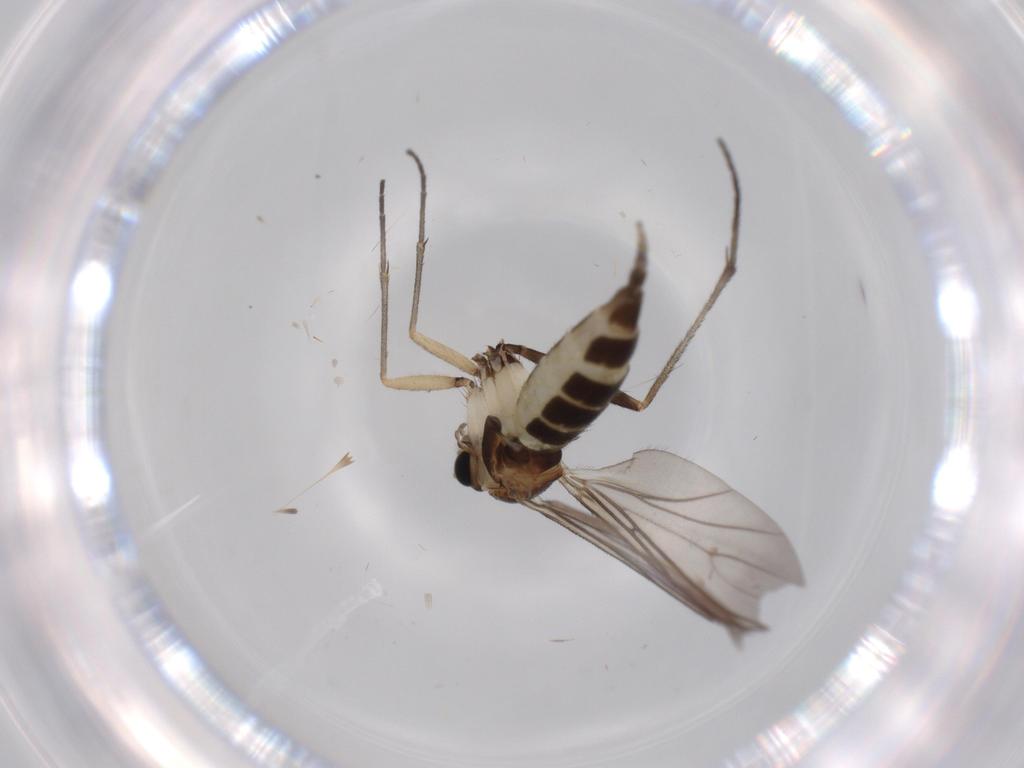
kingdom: Animalia
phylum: Arthropoda
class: Insecta
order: Diptera
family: Sciaridae
